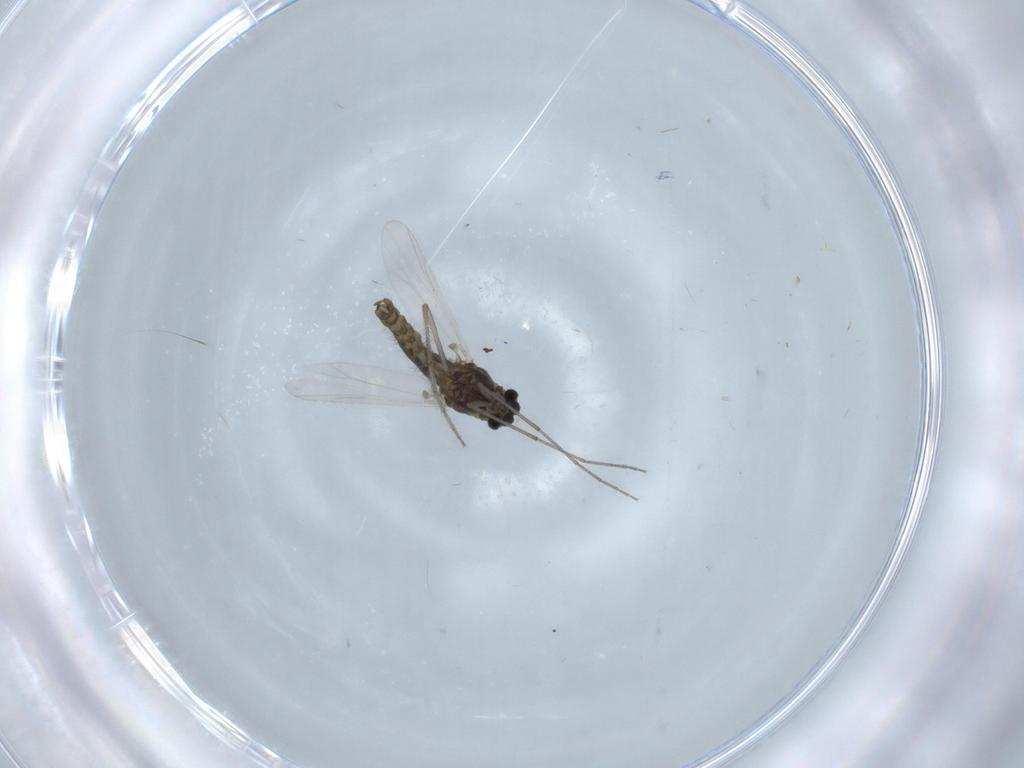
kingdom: Animalia
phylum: Arthropoda
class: Insecta
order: Diptera
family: Chironomidae
